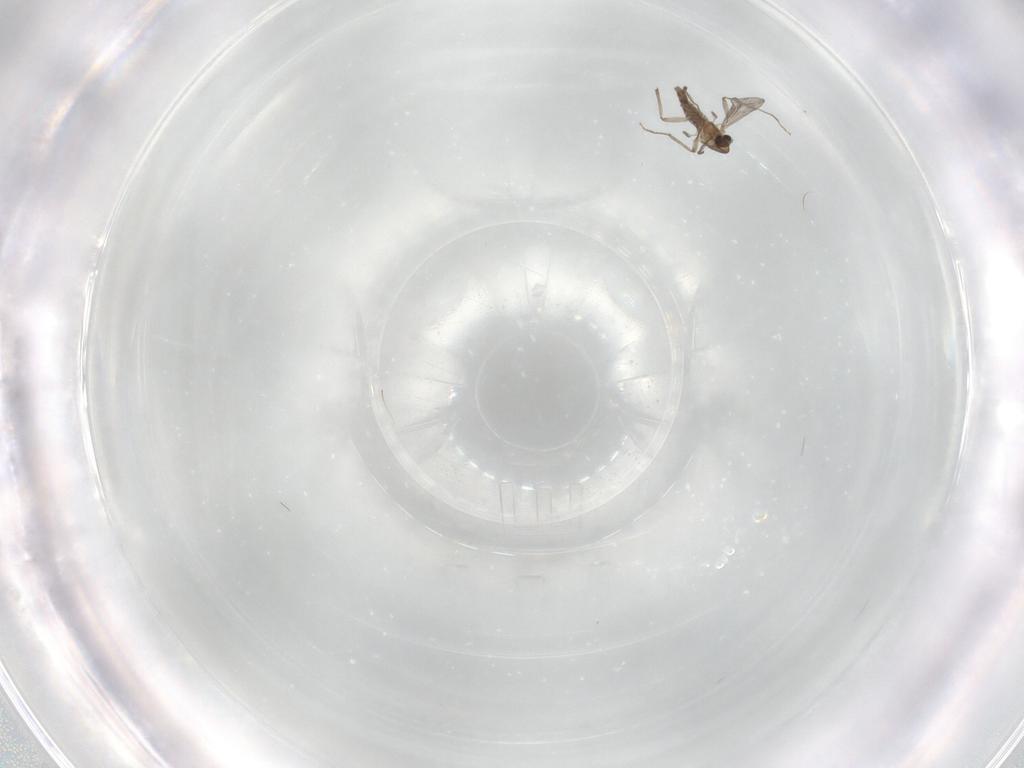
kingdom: Animalia
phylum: Arthropoda
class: Insecta
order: Diptera
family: Chironomidae
